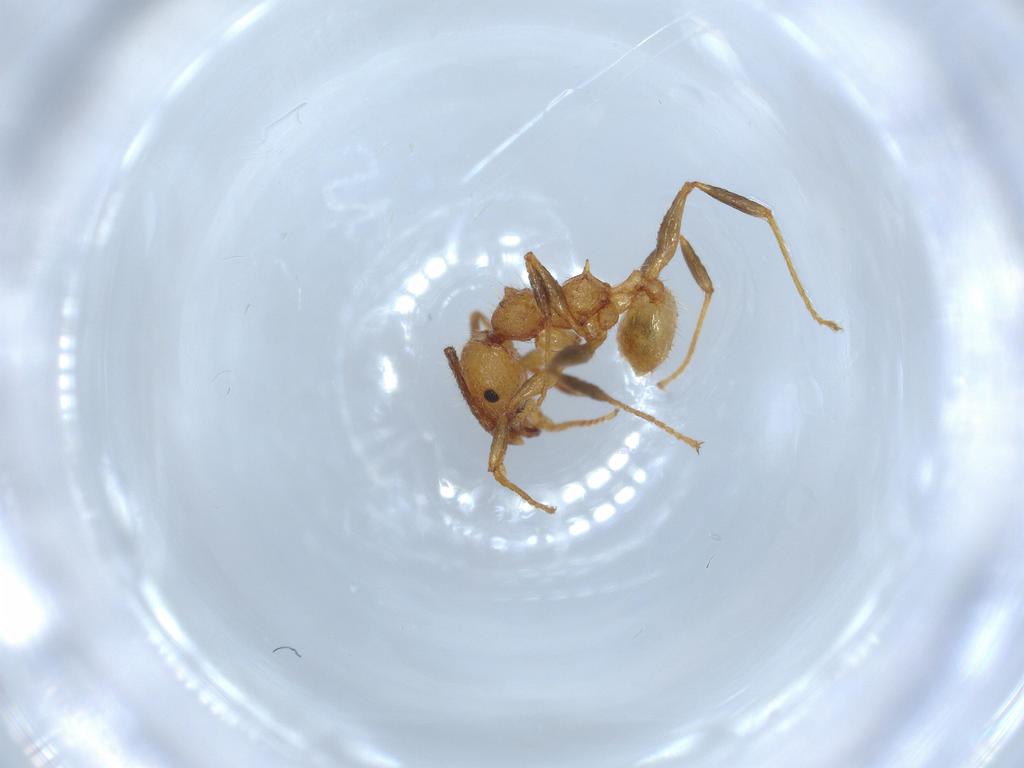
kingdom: Animalia
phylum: Arthropoda
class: Insecta
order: Hymenoptera
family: Formicidae
